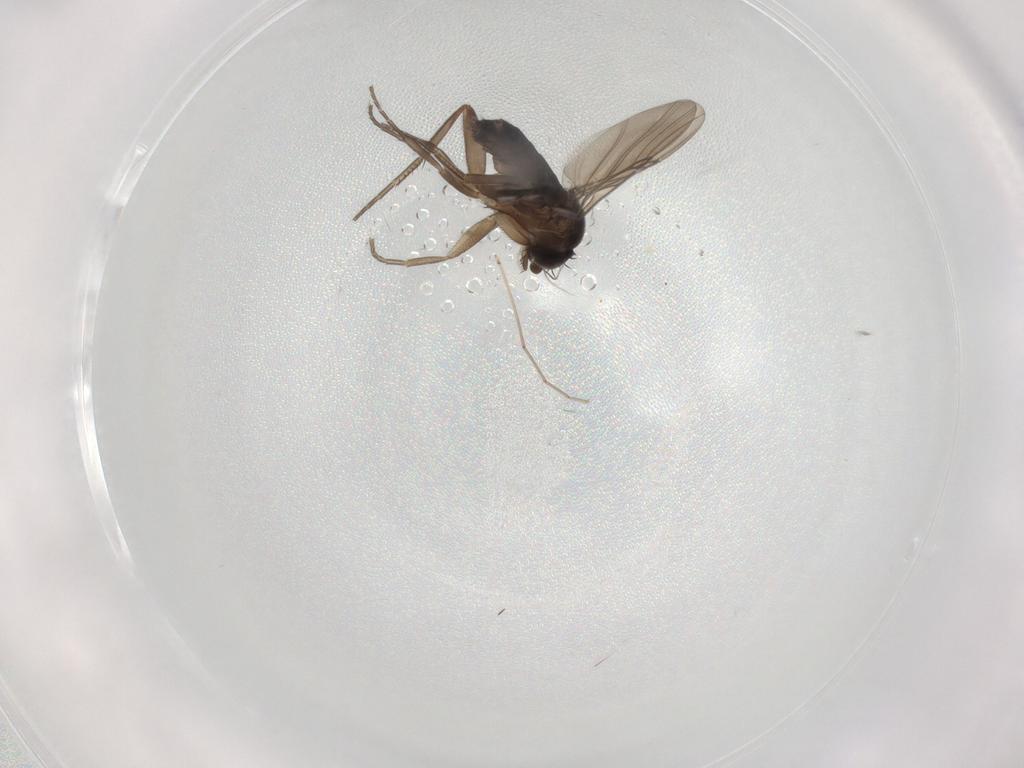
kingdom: Animalia
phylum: Arthropoda
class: Insecta
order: Diptera
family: Phoridae
